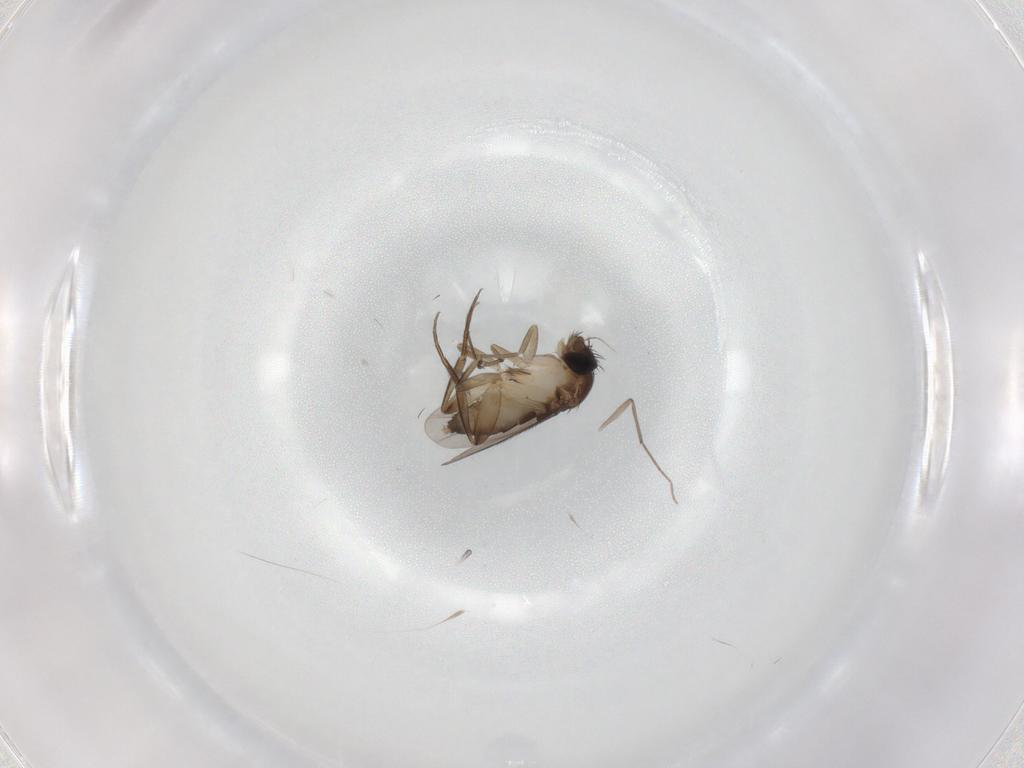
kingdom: Animalia
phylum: Arthropoda
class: Insecta
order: Diptera
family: Phoridae
